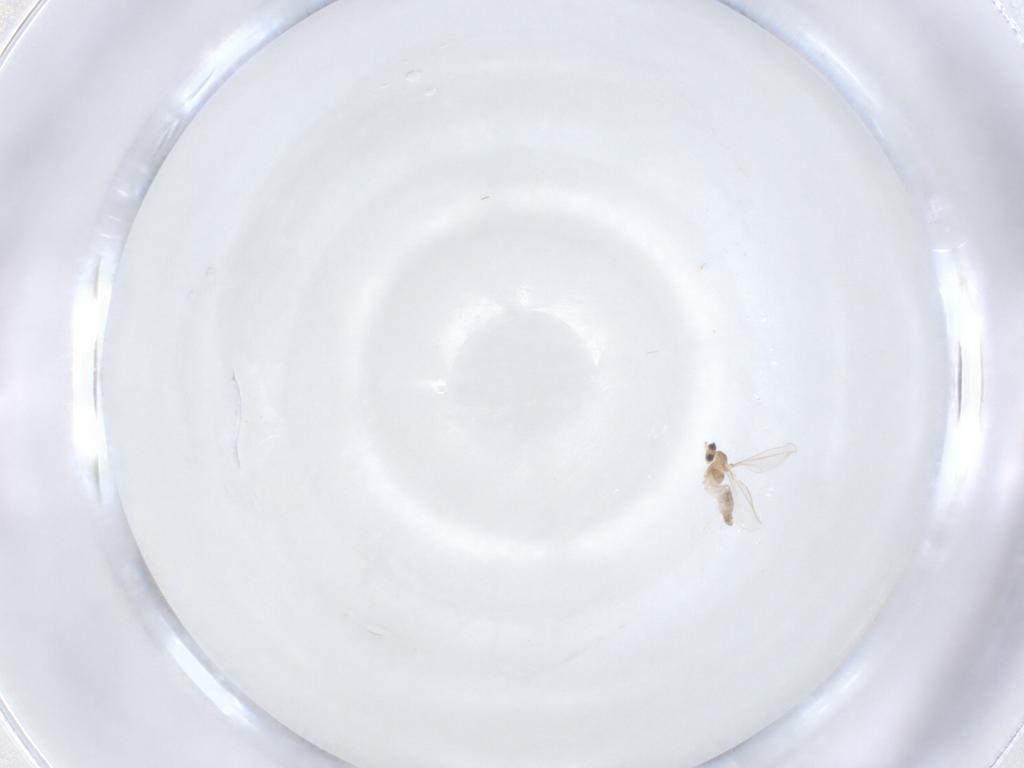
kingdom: Animalia
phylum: Arthropoda
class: Insecta
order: Diptera
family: Cecidomyiidae
